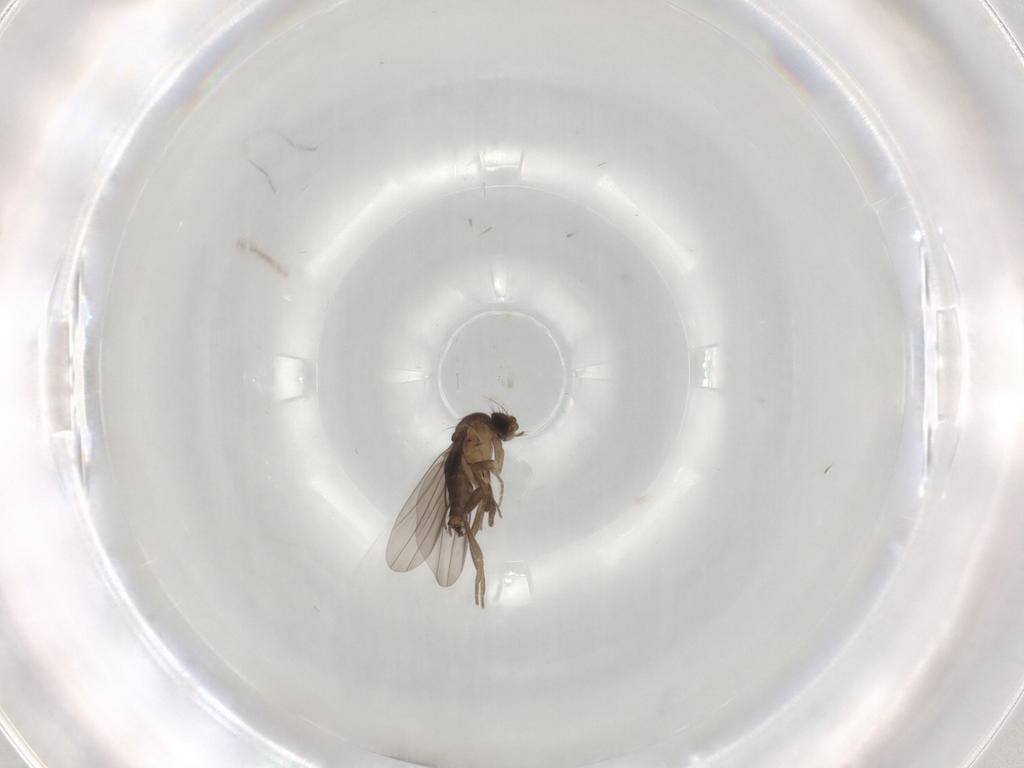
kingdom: Animalia
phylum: Arthropoda
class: Insecta
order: Diptera
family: Phoridae
